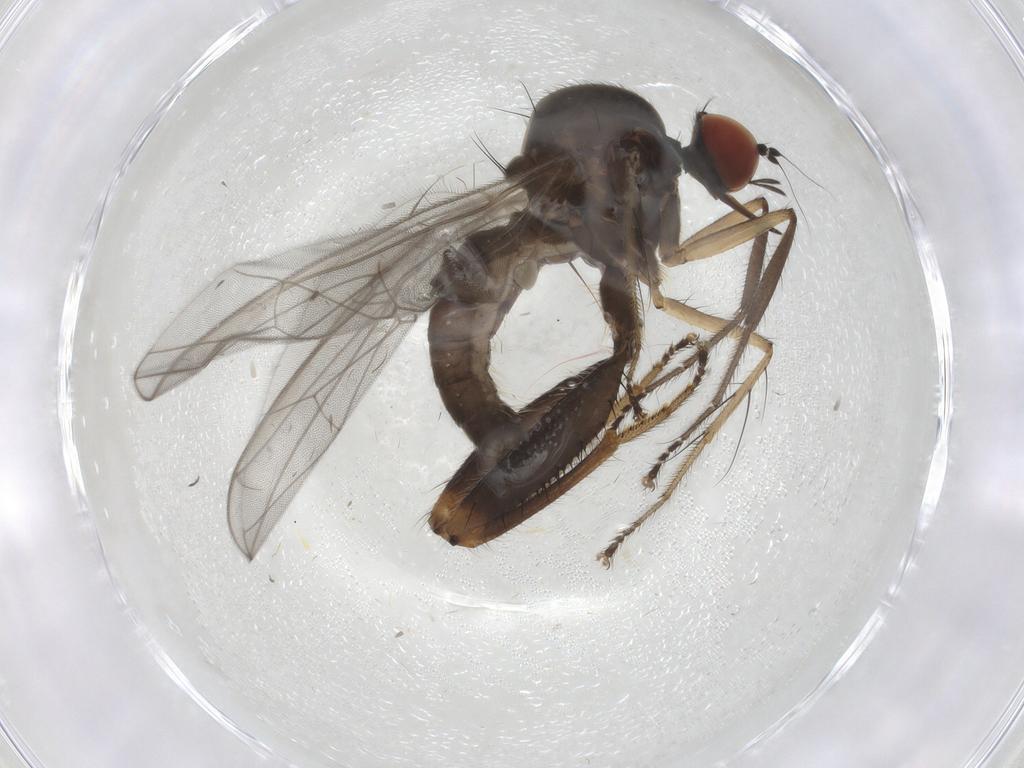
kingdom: Animalia
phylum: Arthropoda
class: Insecta
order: Diptera
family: Hybotidae
